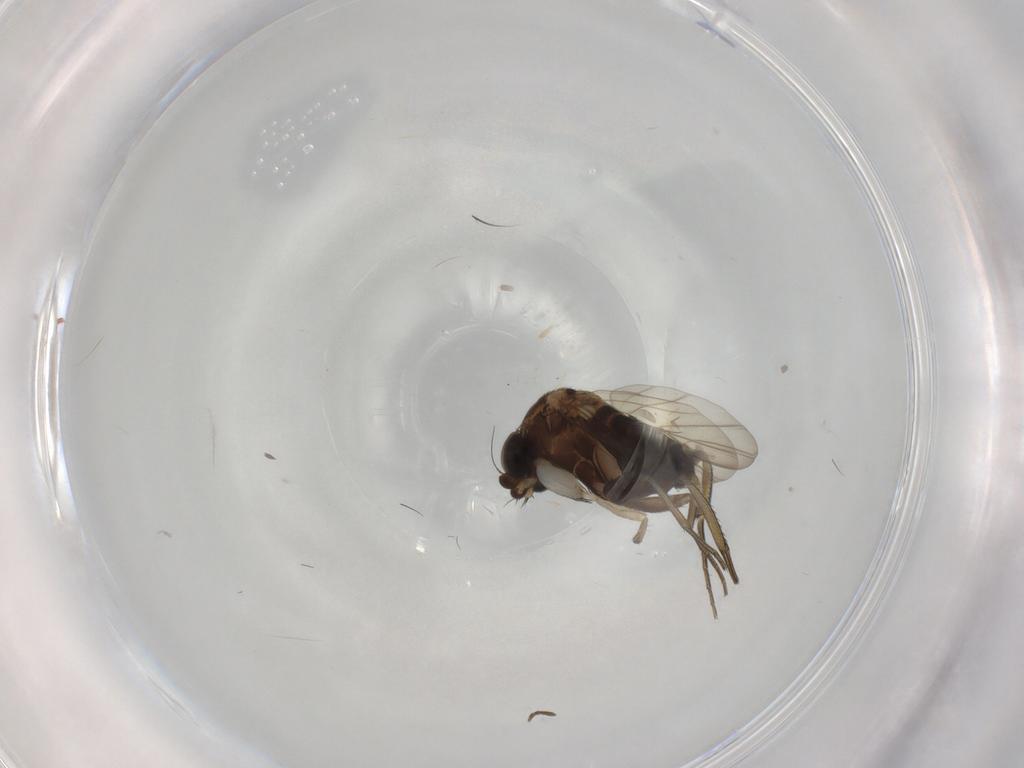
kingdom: Animalia
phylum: Arthropoda
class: Insecta
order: Diptera
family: Phoridae
